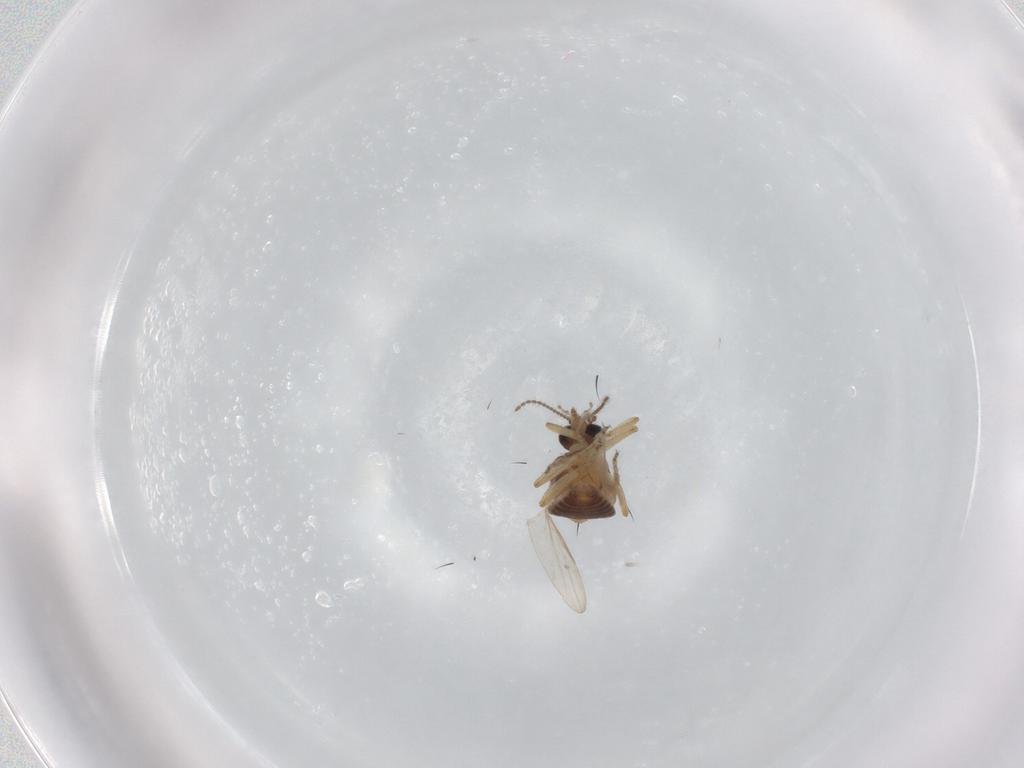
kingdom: Animalia
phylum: Arthropoda
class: Insecta
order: Diptera
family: Ceratopogonidae
